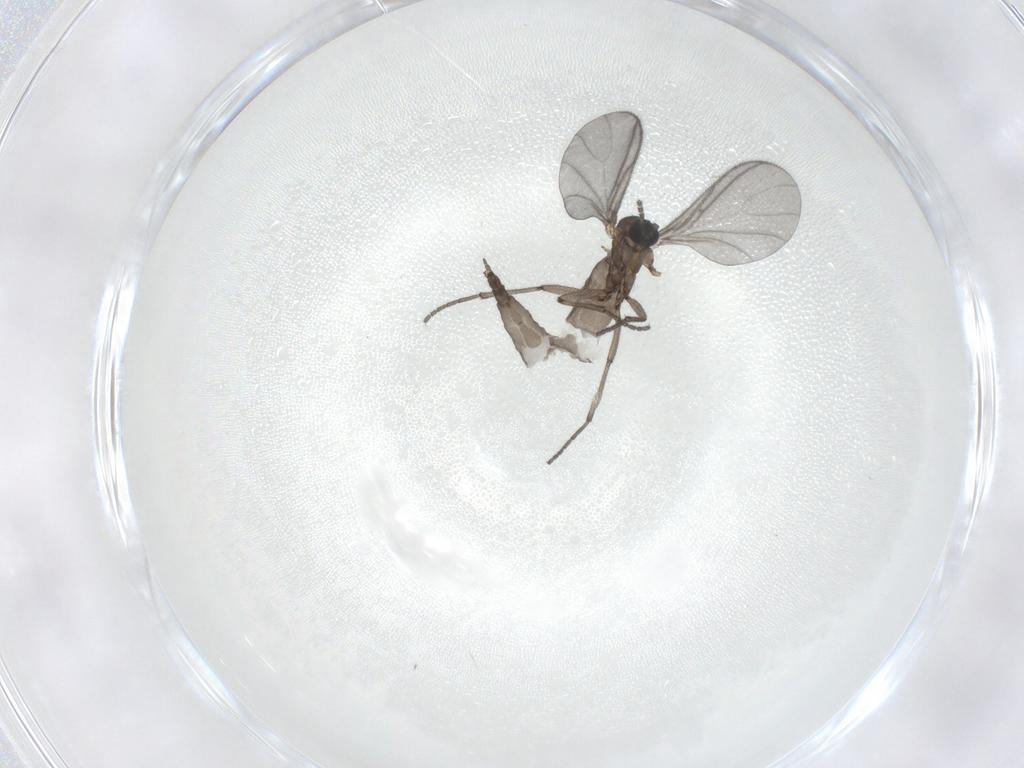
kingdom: Animalia
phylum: Arthropoda
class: Insecta
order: Diptera
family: Sciaridae
